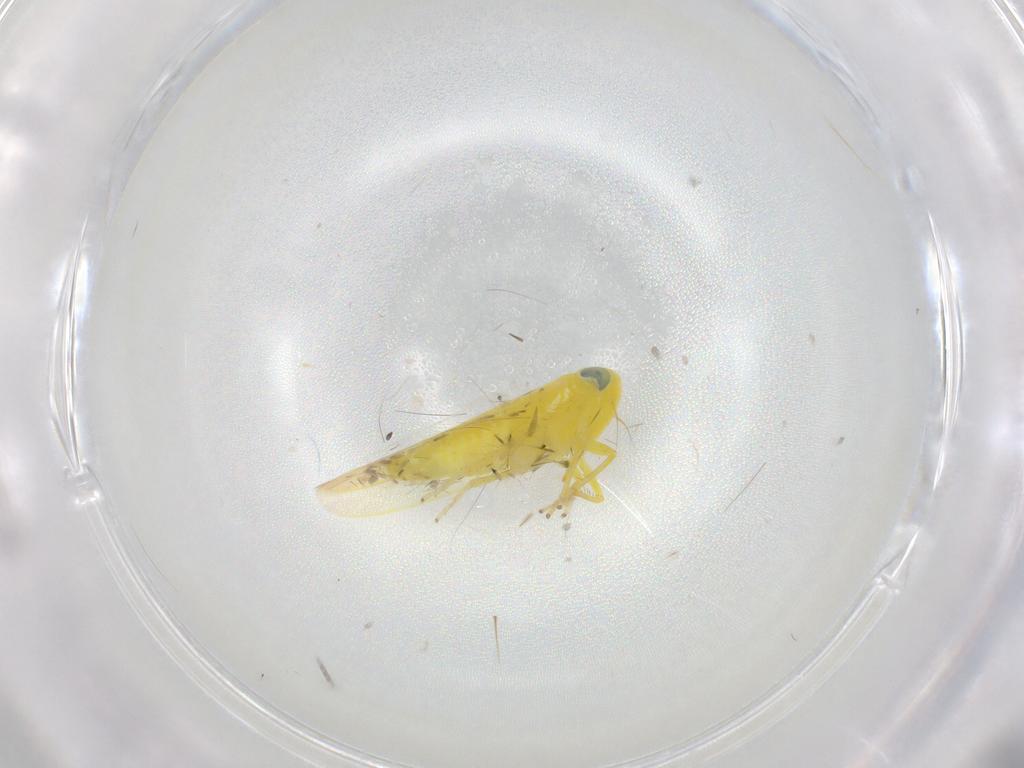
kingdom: Animalia
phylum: Arthropoda
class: Insecta
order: Hemiptera
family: Cicadellidae
